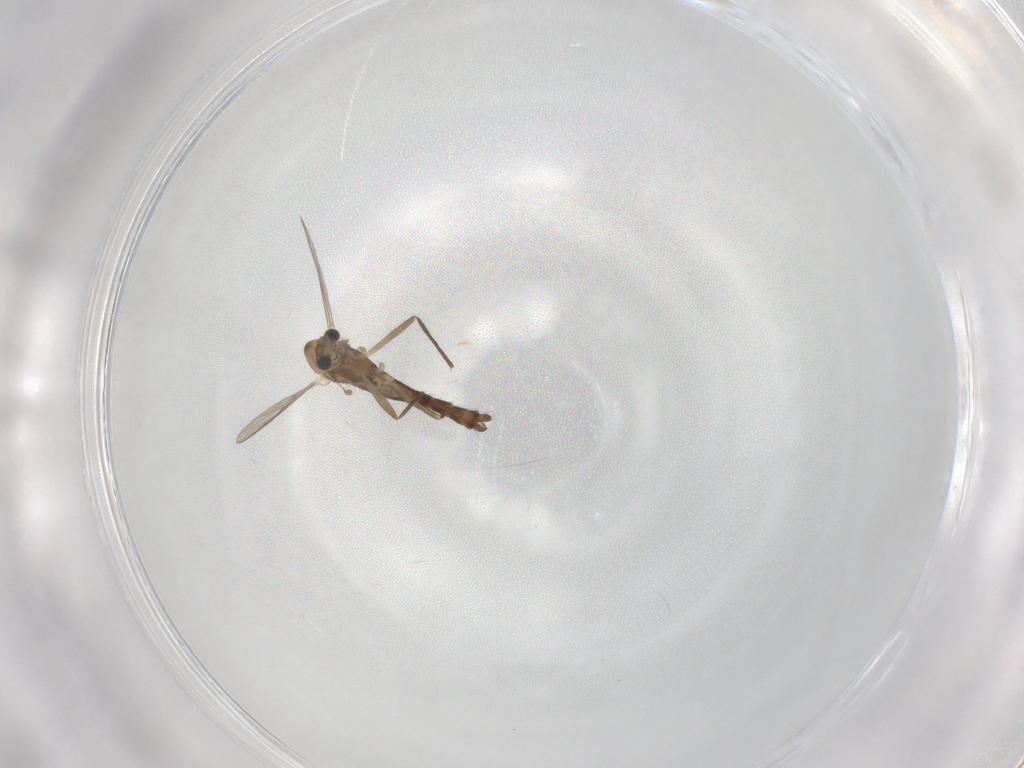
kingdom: Animalia
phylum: Arthropoda
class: Insecta
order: Diptera
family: Chironomidae
